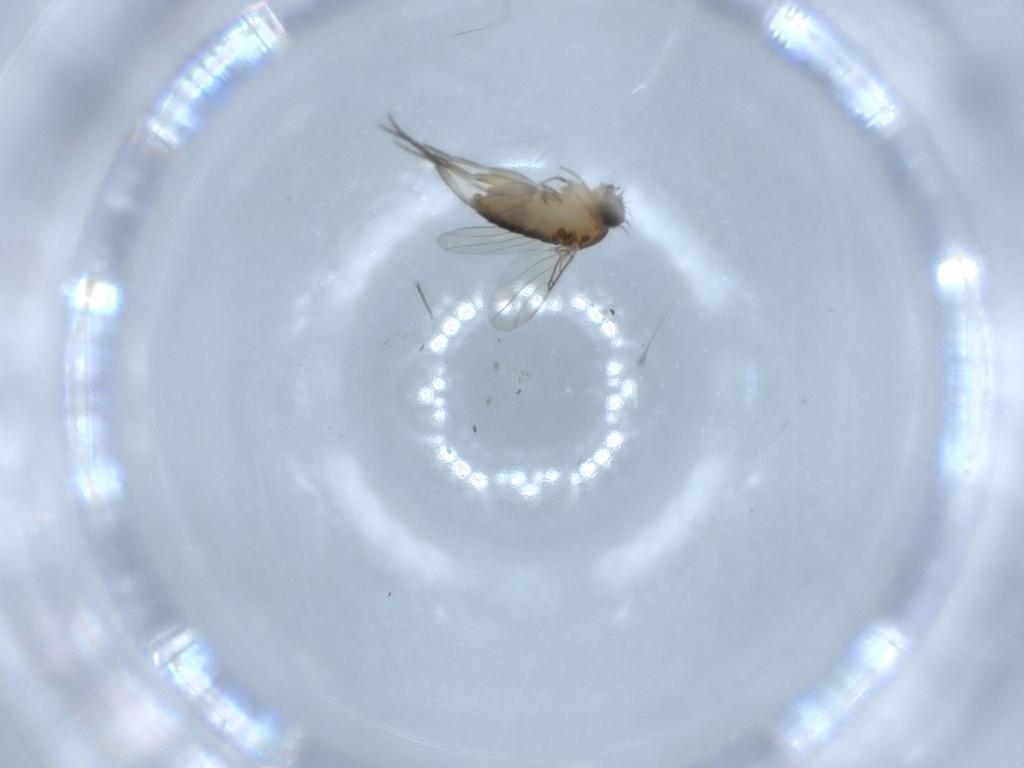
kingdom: Animalia
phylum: Arthropoda
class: Insecta
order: Diptera
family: Phoridae
